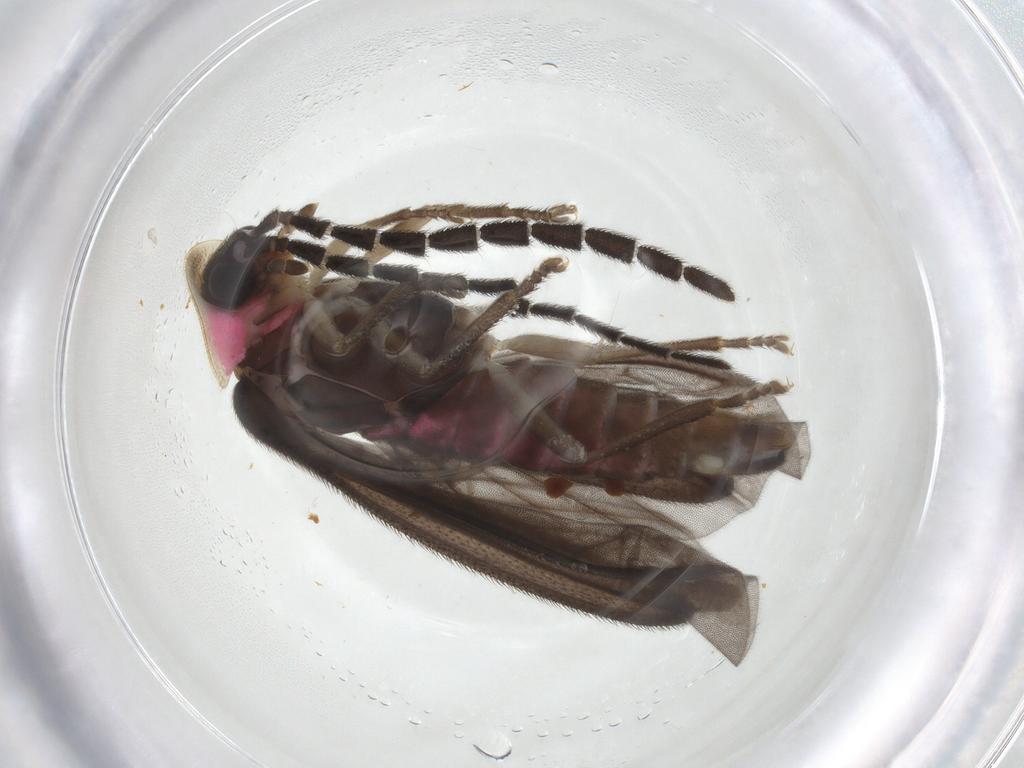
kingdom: Animalia
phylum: Arthropoda
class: Insecta
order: Coleoptera
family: Lampyridae
